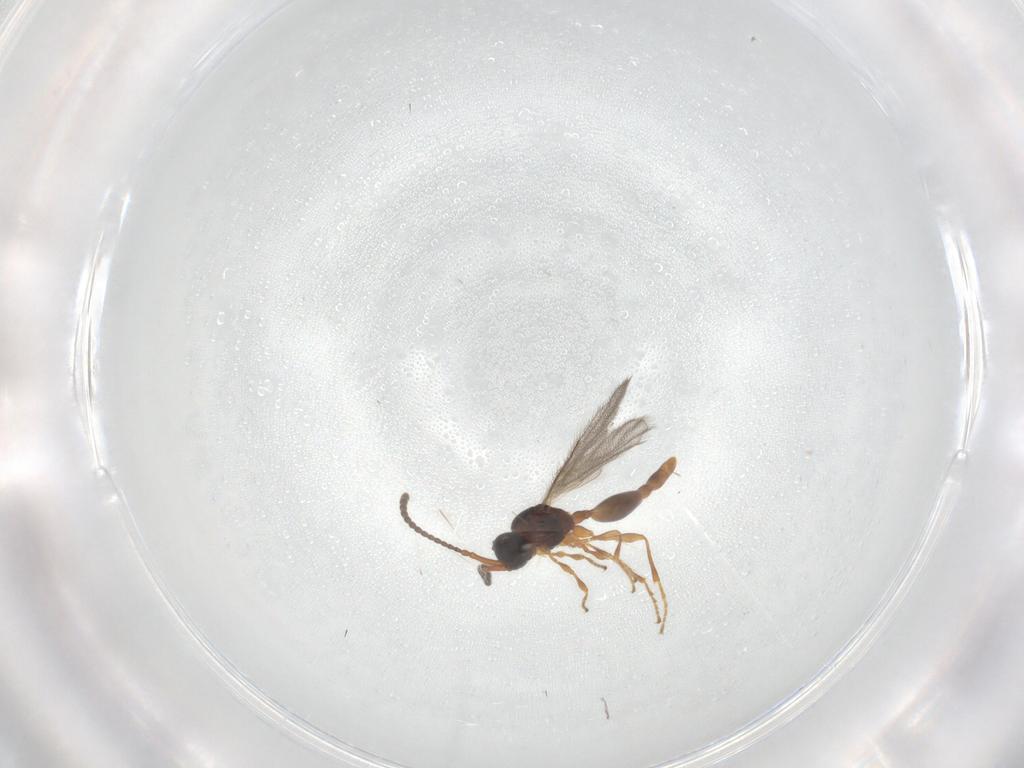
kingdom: Animalia
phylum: Arthropoda
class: Insecta
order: Hymenoptera
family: Diapriidae
